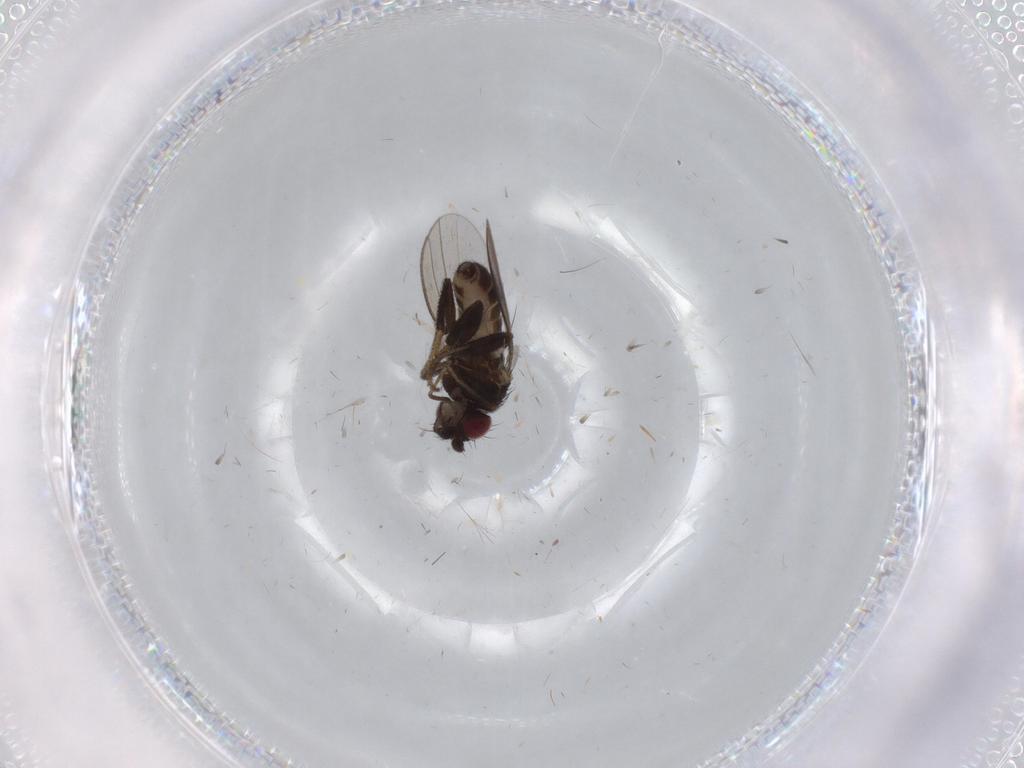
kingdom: Animalia
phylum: Arthropoda
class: Insecta
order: Diptera
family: Milichiidae
